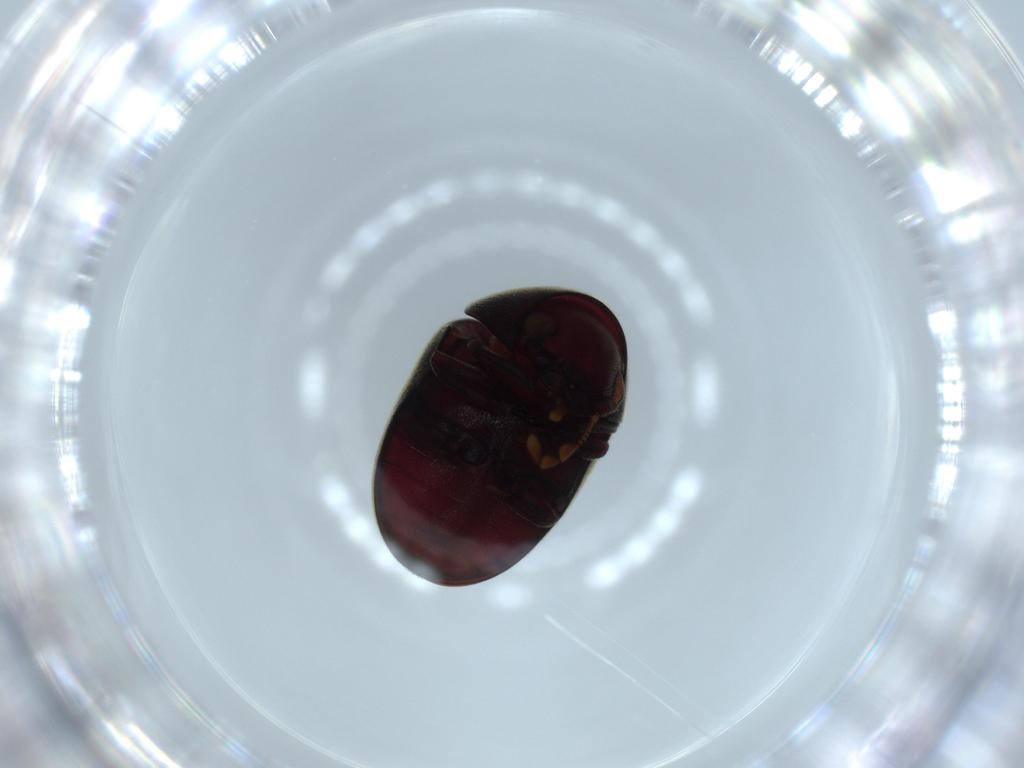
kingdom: Animalia
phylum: Arthropoda
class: Insecta
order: Coleoptera
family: Ptinidae
